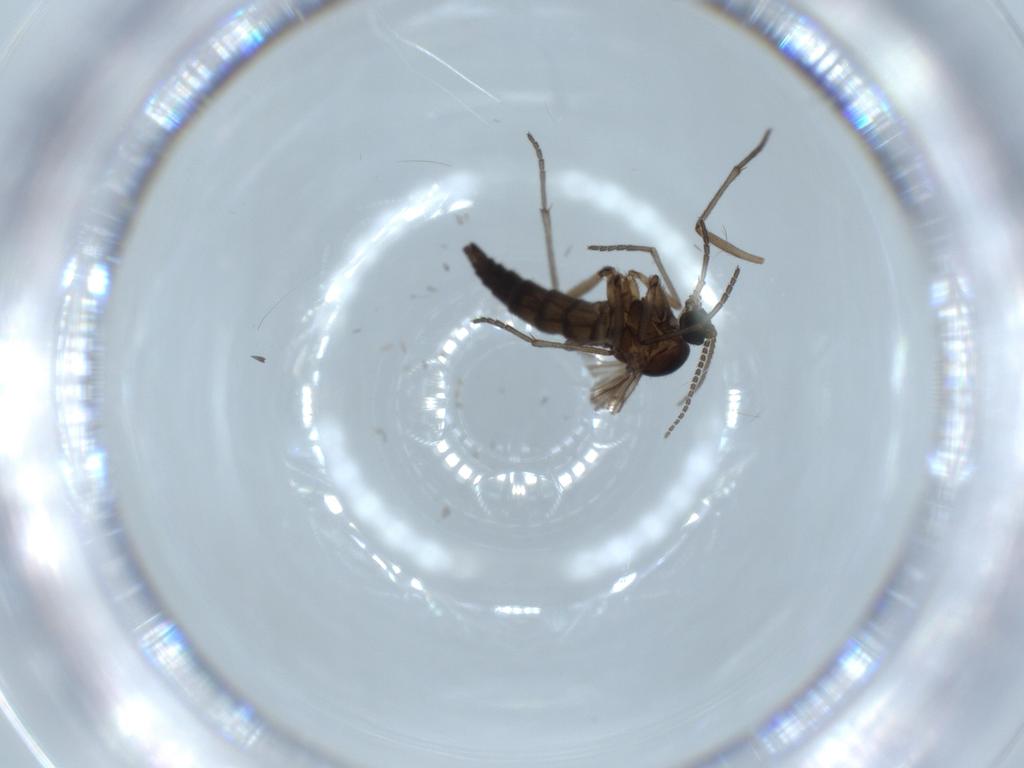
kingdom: Animalia
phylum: Arthropoda
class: Insecta
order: Diptera
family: Sciaridae
